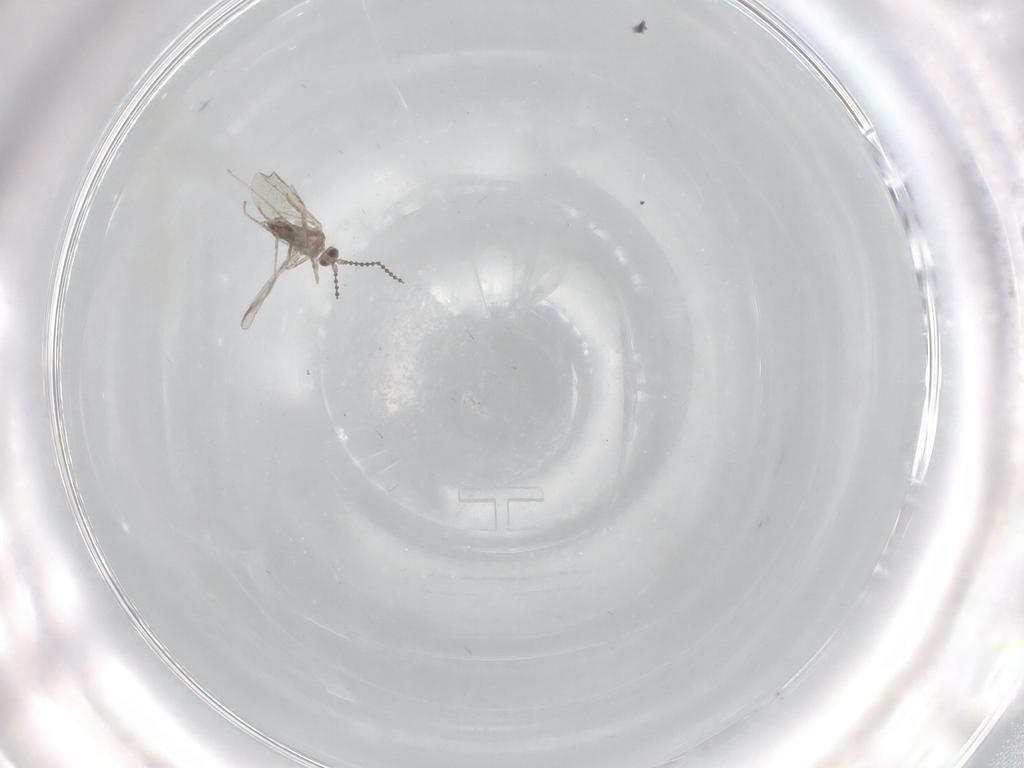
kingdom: Animalia
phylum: Arthropoda
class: Insecta
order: Diptera
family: Cecidomyiidae
